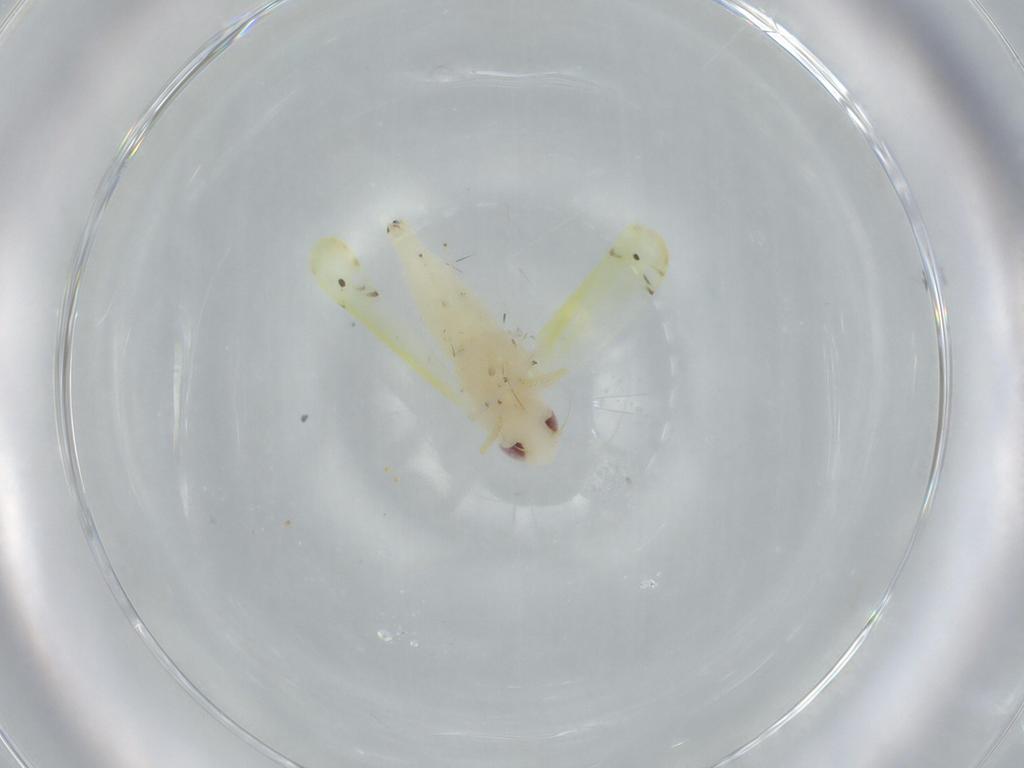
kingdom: Animalia
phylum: Arthropoda
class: Insecta
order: Hemiptera
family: Cicadellidae
